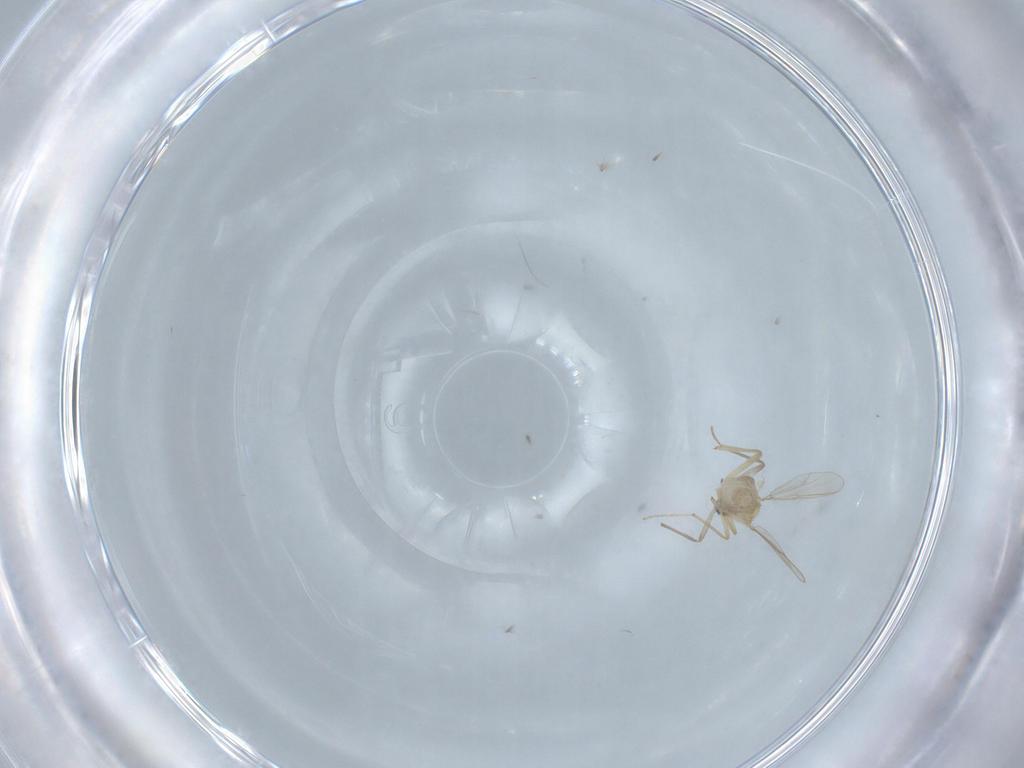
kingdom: Animalia
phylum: Arthropoda
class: Insecta
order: Diptera
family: Chironomidae
